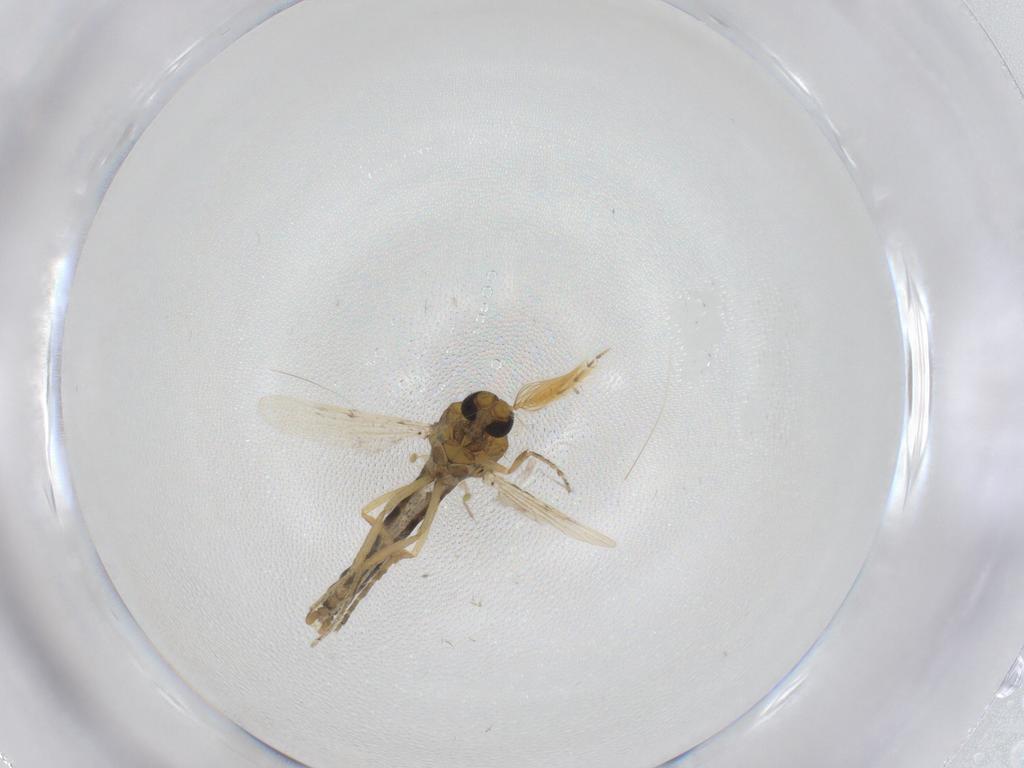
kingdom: Animalia
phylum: Arthropoda
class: Insecta
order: Diptera
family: Ceratopogonidae
